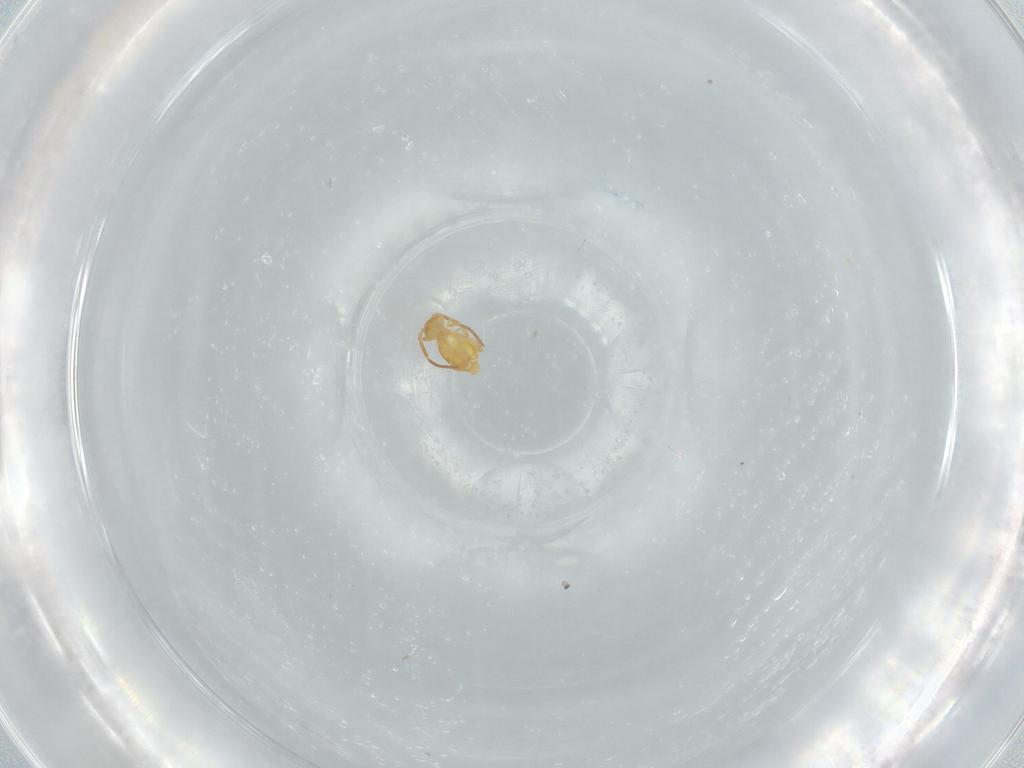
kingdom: Animalia
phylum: Arthropoda
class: Collembola
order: Symphypleona
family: Bourletiellidae
